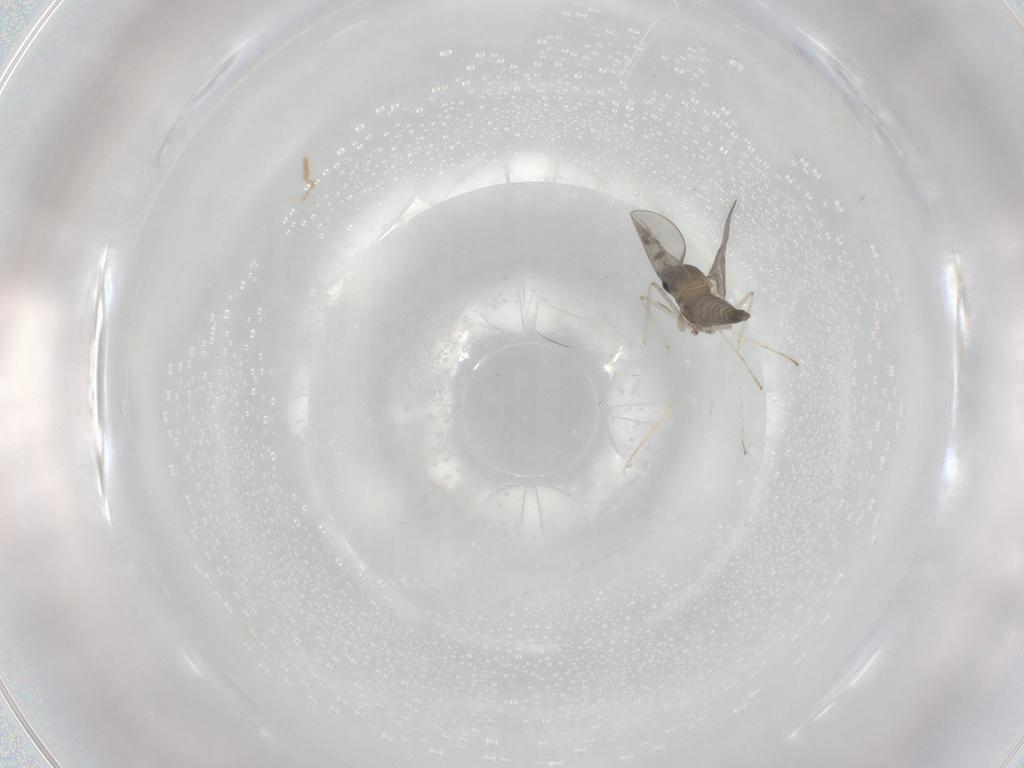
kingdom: Animalia
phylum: Arthropoda
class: Insecta
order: Diptera
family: Cecidomyiidae
